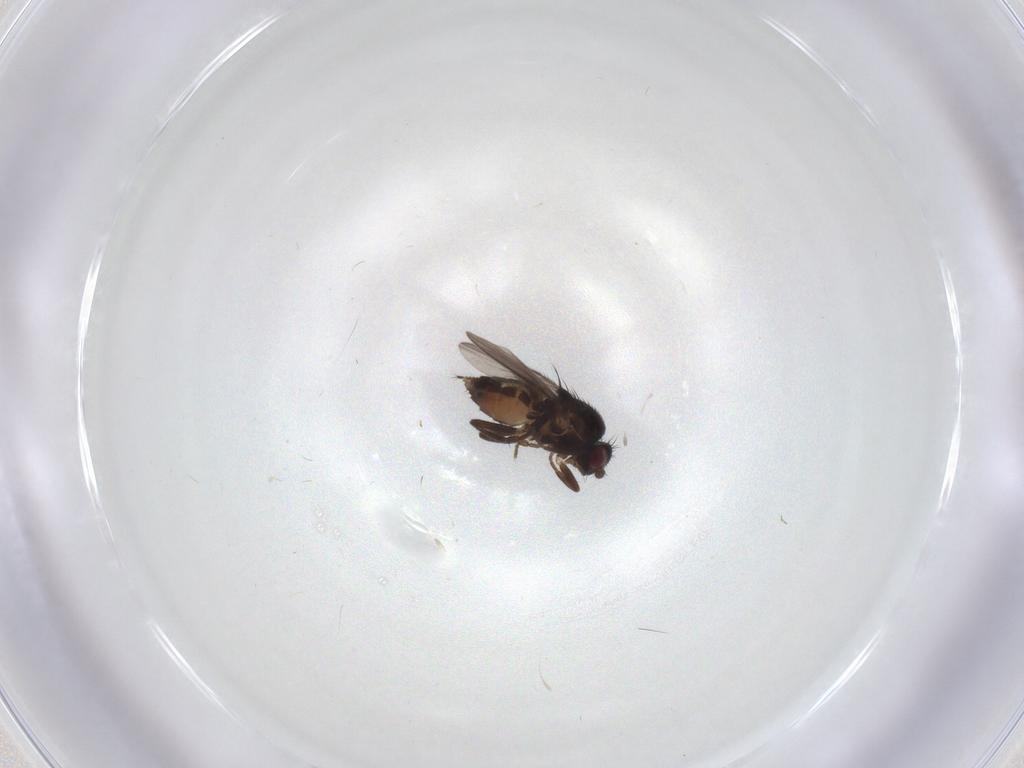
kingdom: Animalia
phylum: Arthropoda
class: Insecta
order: Diptera
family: Sphaeroceridae
